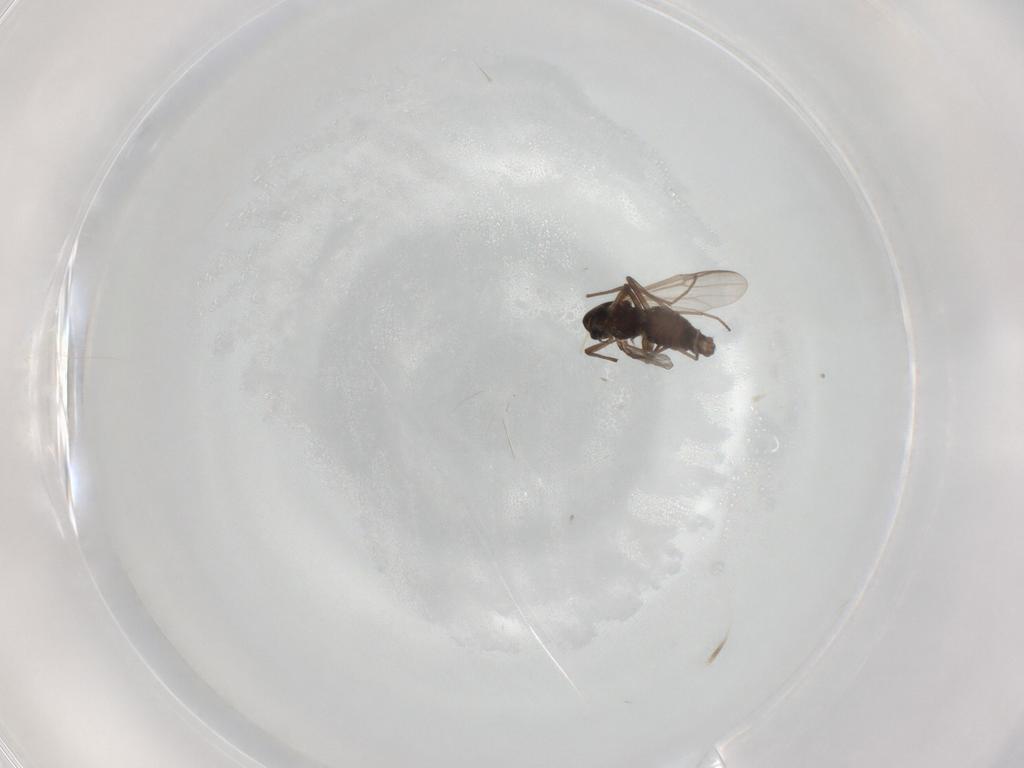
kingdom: Animalia
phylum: Arthropoda
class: Insecta
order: Diptera
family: Chironomidae
